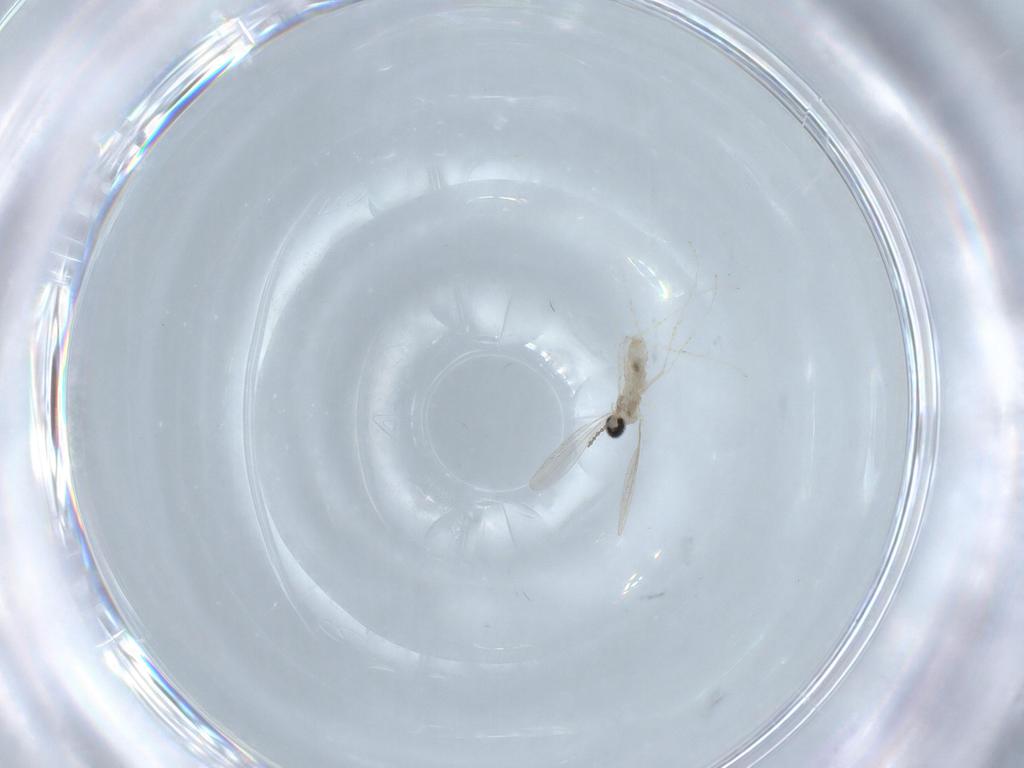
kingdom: Animalia
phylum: Arthropoda
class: Insecta
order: Diptera
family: Cecidomyiidae
